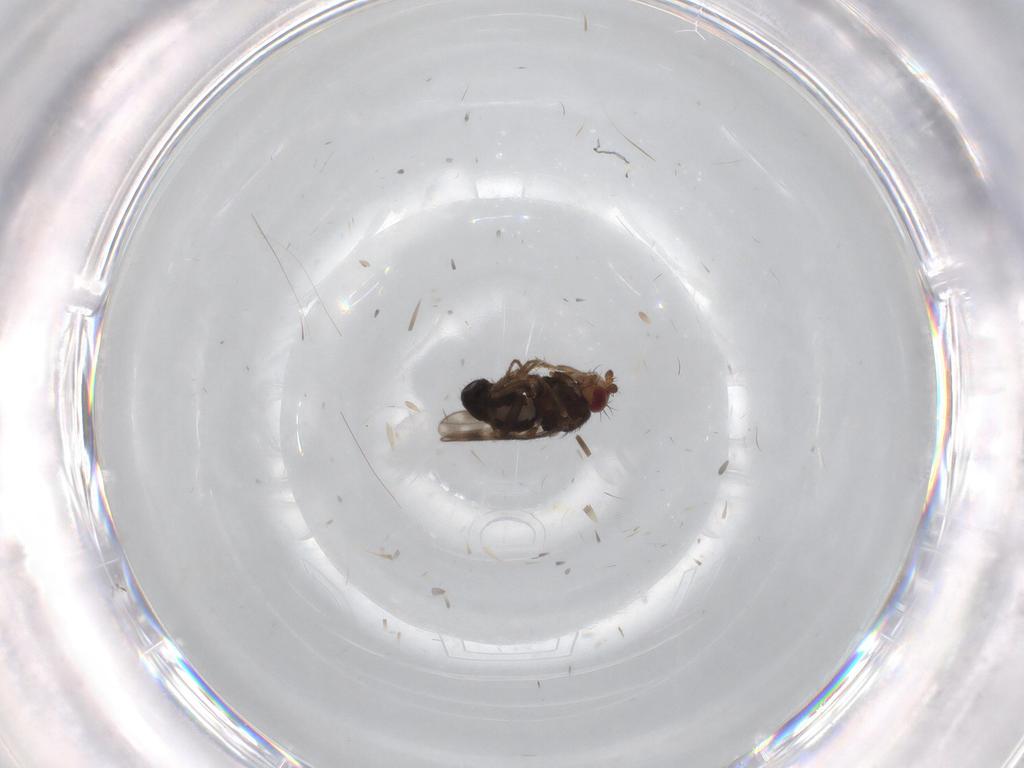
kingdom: Animalia
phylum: Arthropoda
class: Insecta
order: Diptera
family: Sphaeroceridae
